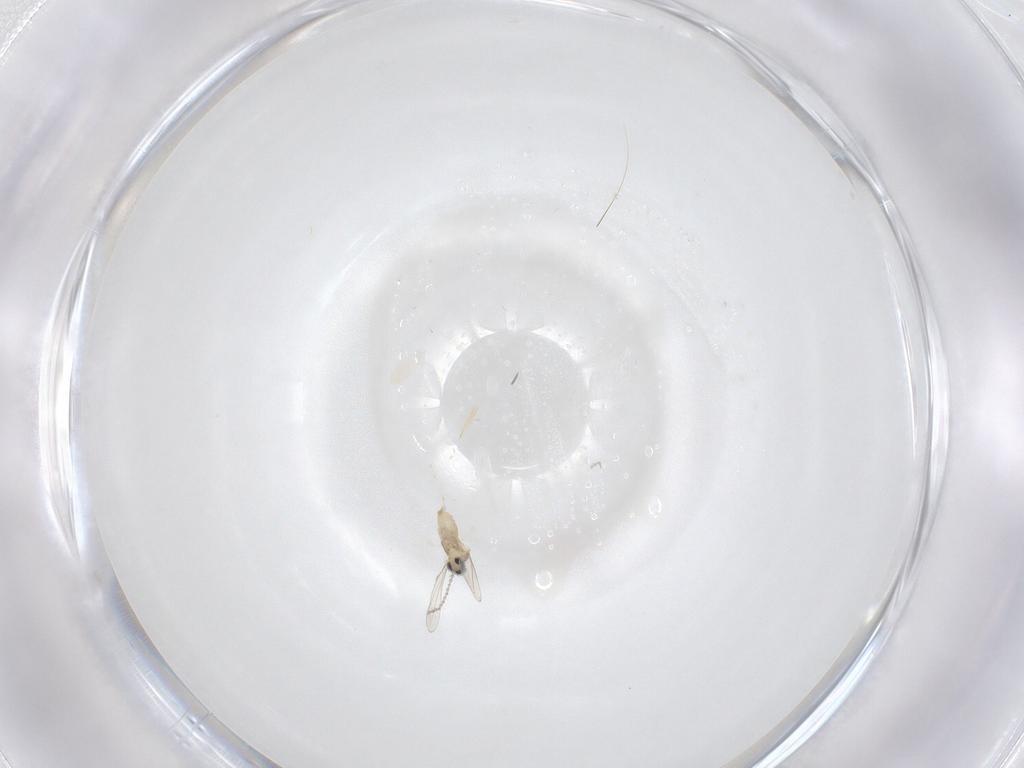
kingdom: Animalia
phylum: Arthropoda
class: Insecta
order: Diptera
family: Cecidomyiidae
